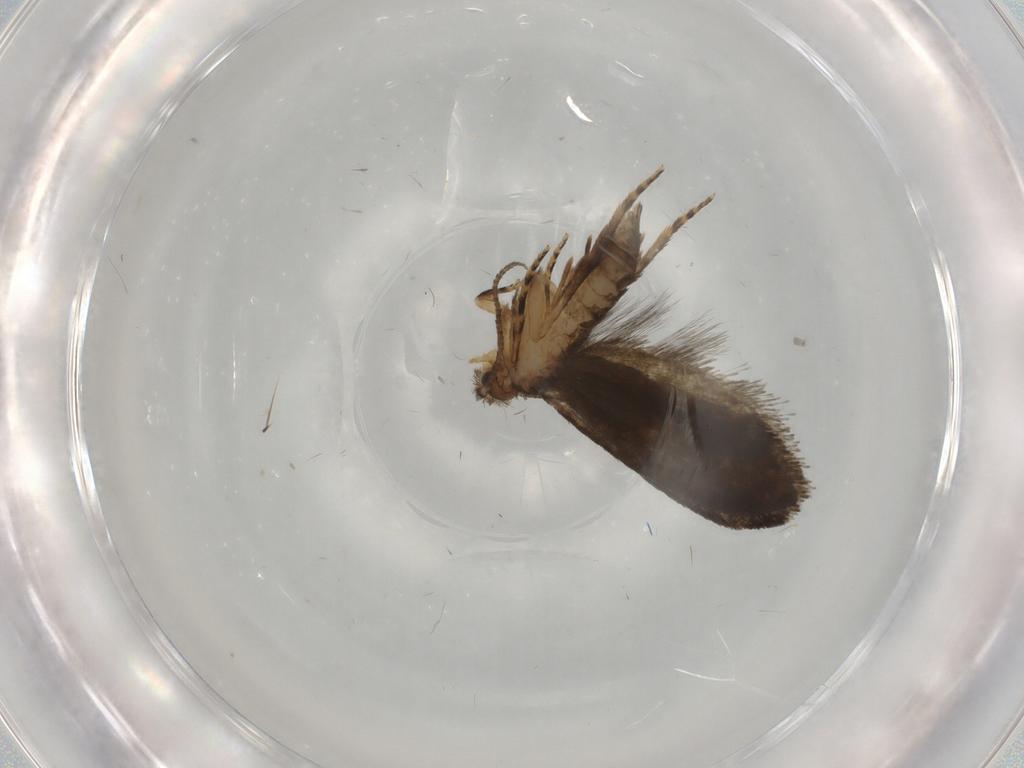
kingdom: Animalia
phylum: Arthropoda
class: Insecta
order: Lepidoptera
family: Tineidae
